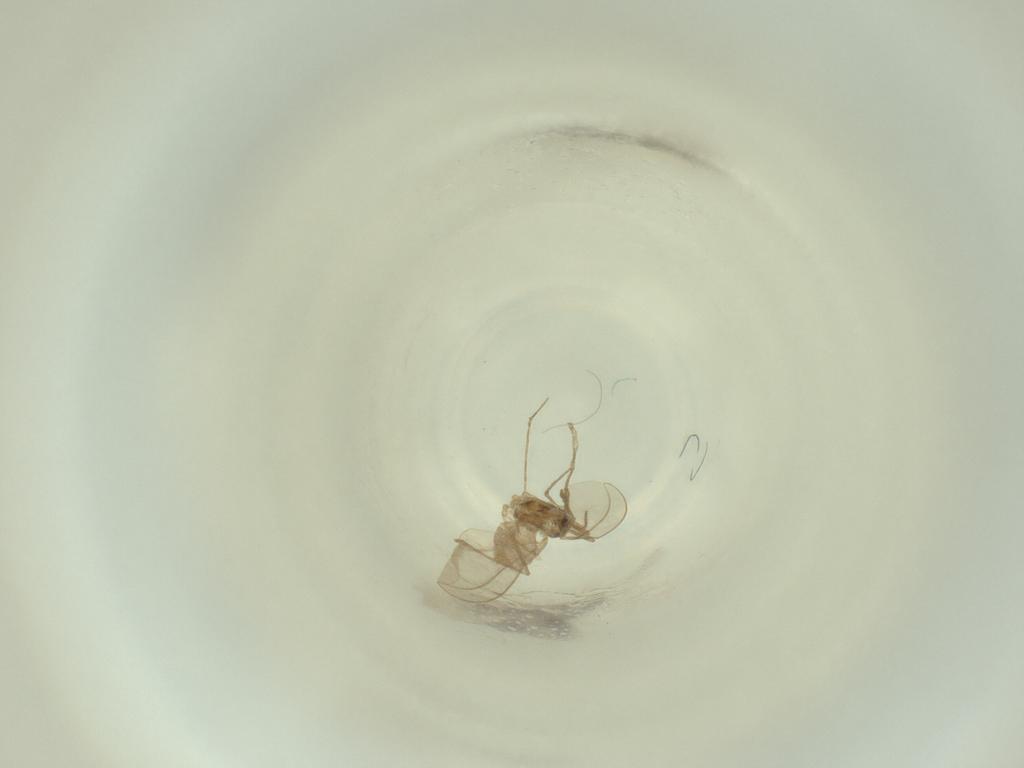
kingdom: Animalia
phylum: Arthropoda
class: Insecta
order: Diptera
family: Cecidomyiidae
